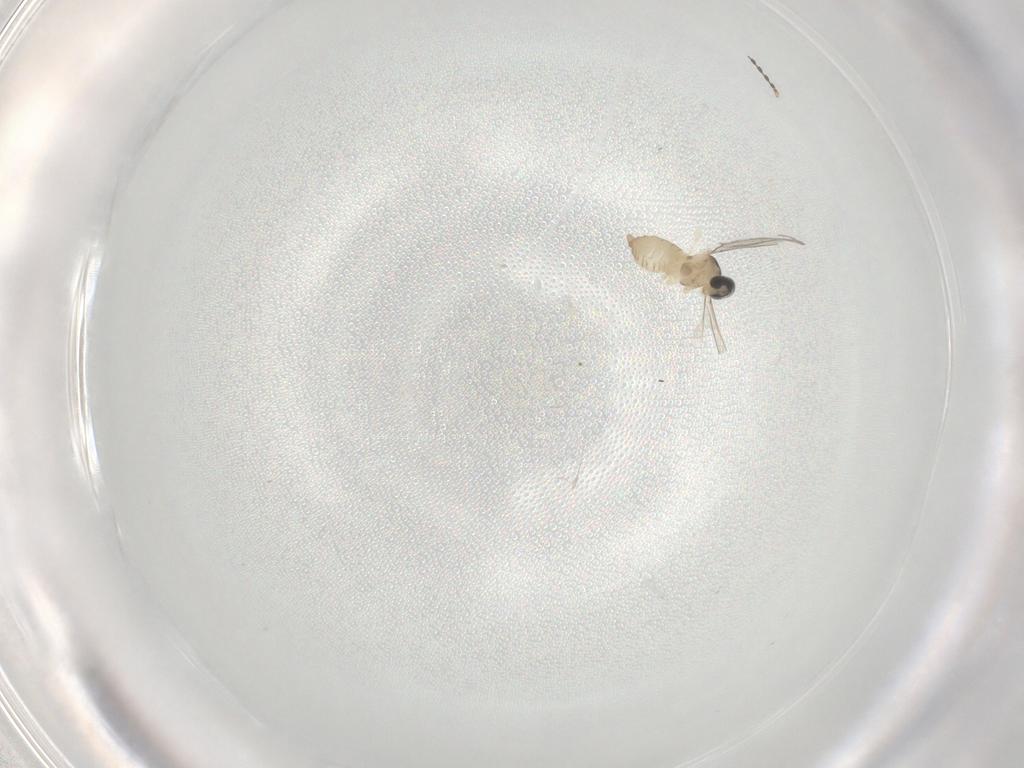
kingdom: Animalia
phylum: Arthropoda
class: Insecta
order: Diptera
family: Cecidomyiidae
